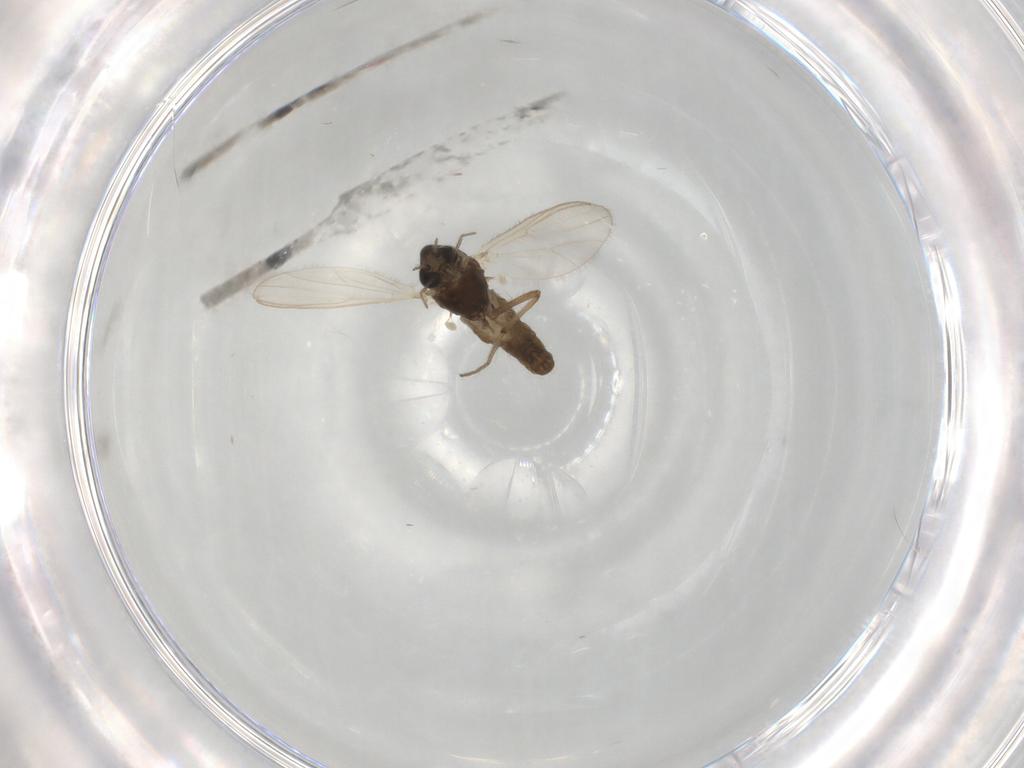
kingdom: Animalia
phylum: Arthropoda
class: Insecta
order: Diptera
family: Chironomidae
